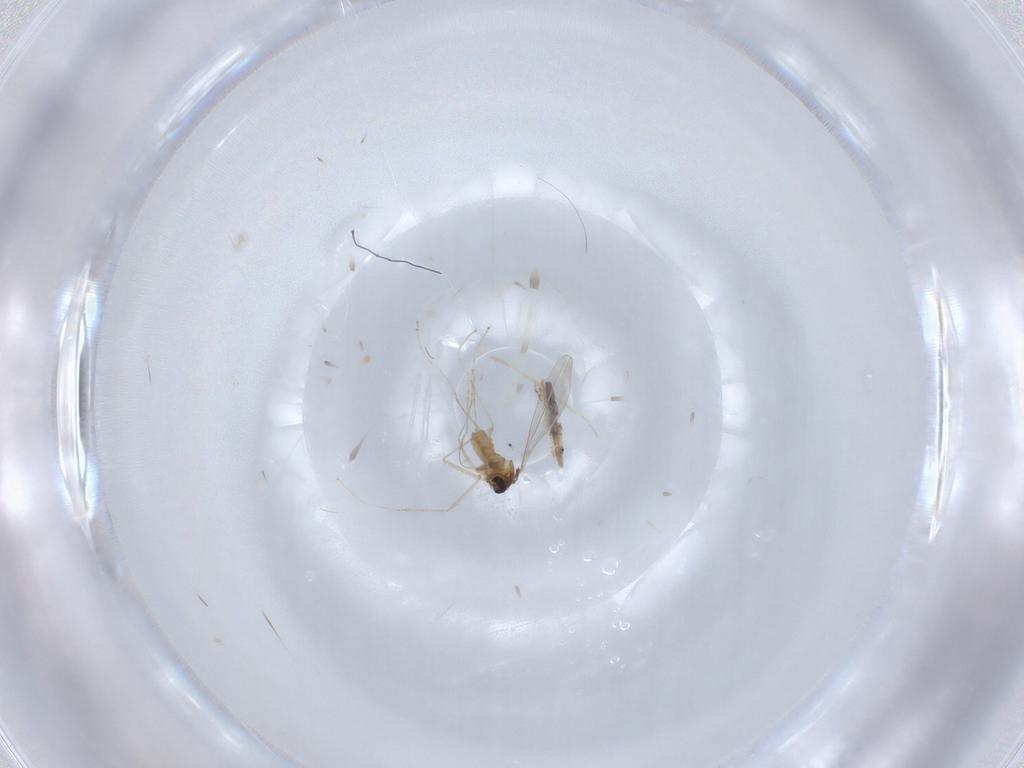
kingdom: Animalia
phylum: Arthropoda
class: Insecta
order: Diptera
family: Cecidomyiidae
